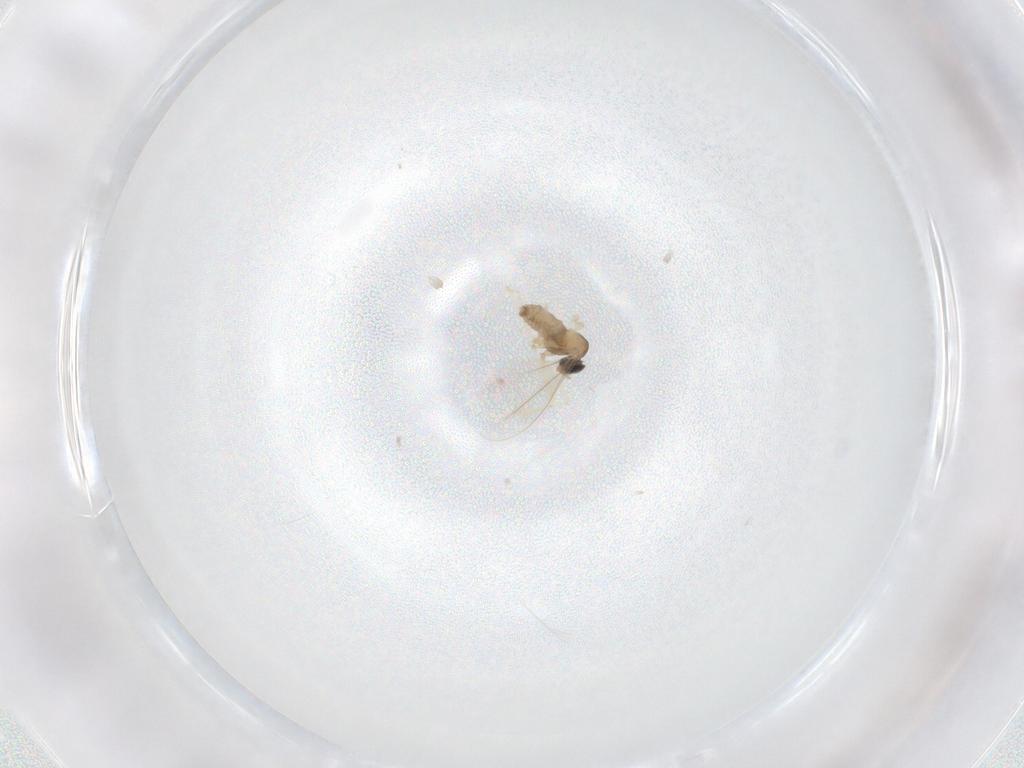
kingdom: Animalia
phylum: Arthropoda
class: Insecta
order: Diptera
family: Cecidomyiidae
